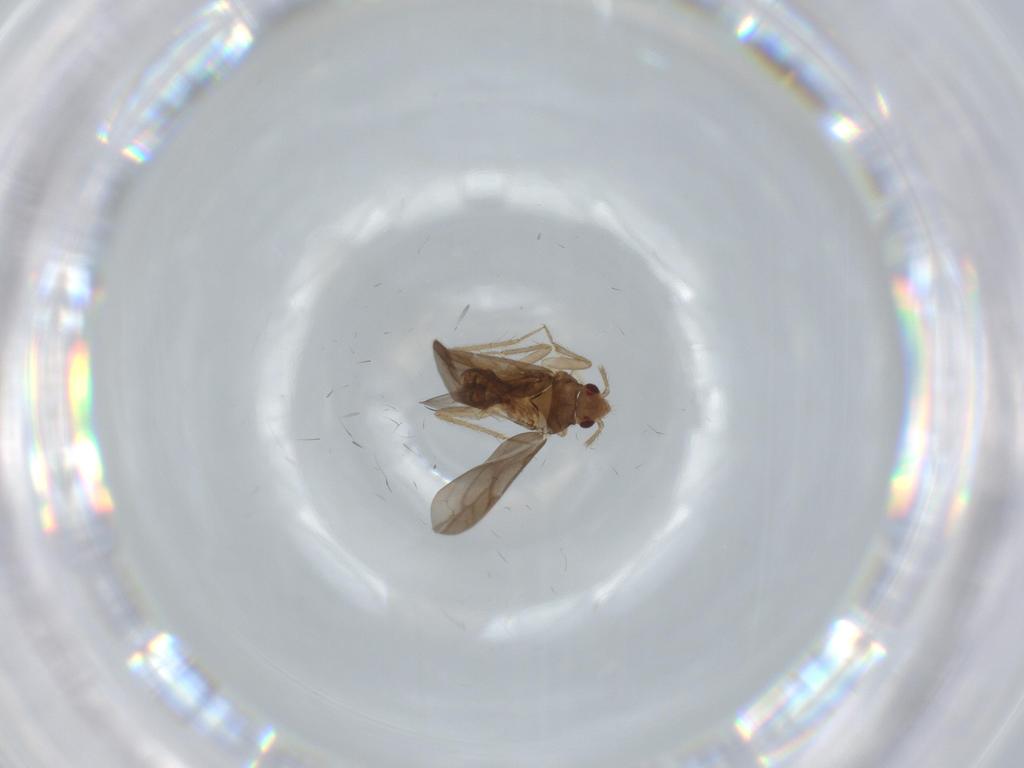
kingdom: Animalia
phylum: Arthropoda
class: Insecta
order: Hemiptera
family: Ceratocombidae
